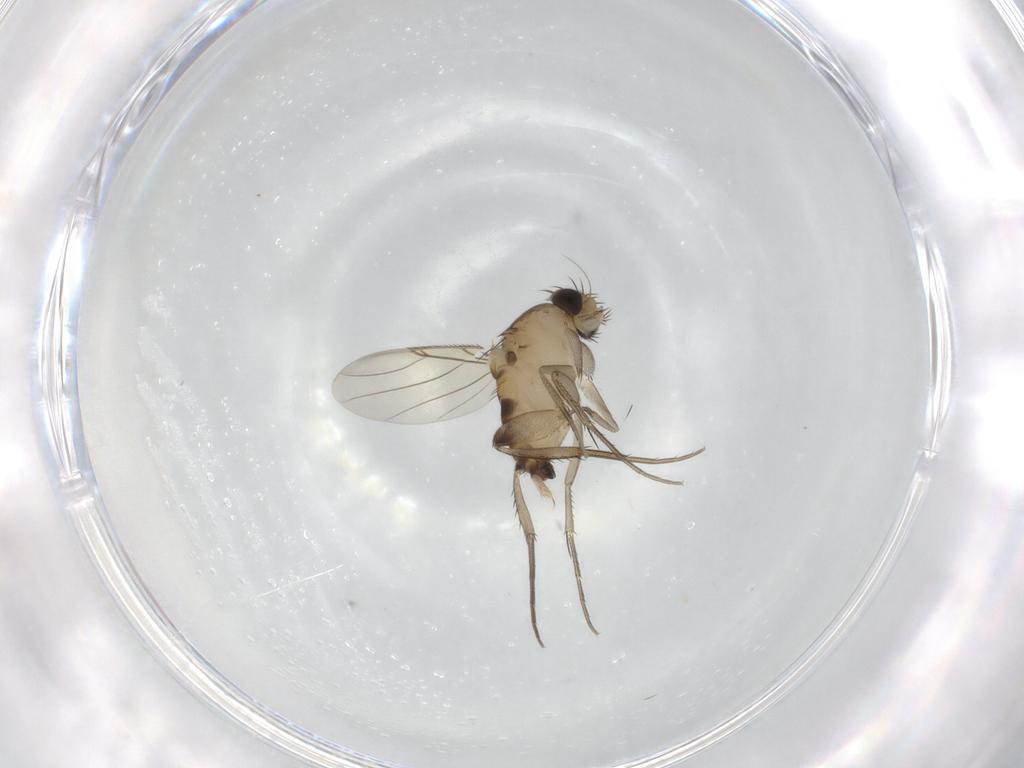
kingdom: Animalia
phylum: Arthropoda
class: Insecta
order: Diptera
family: Phoridae
